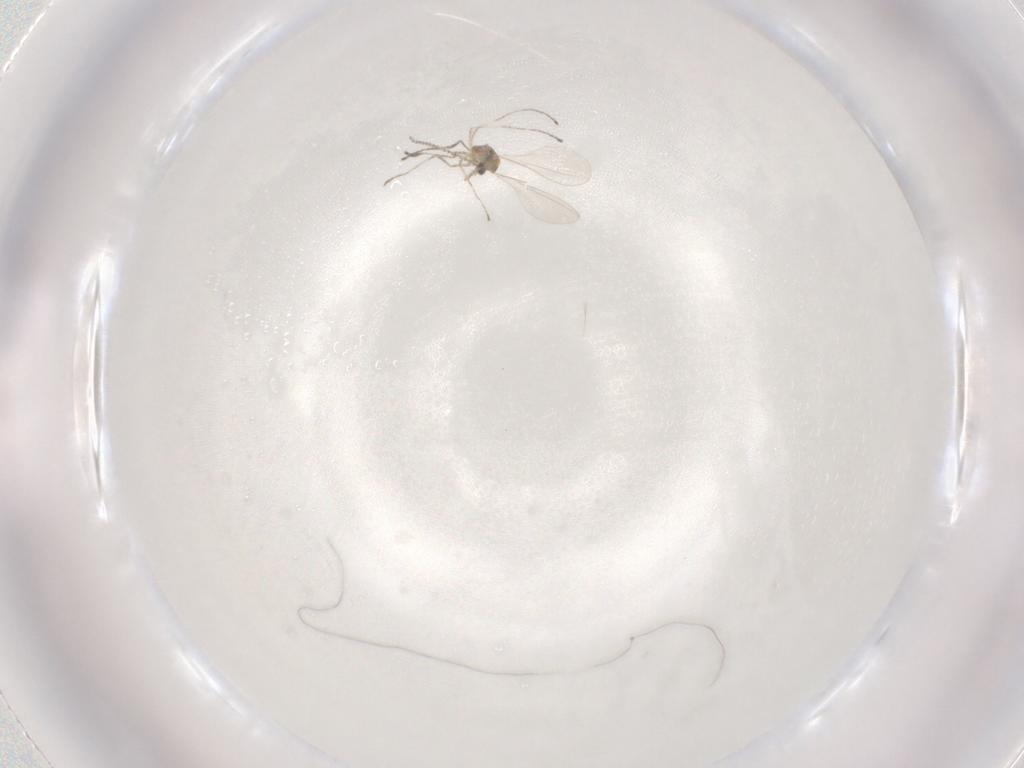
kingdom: Animalia
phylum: Arthropoda
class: Insecta
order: Diptera
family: Cecidomyiidae
